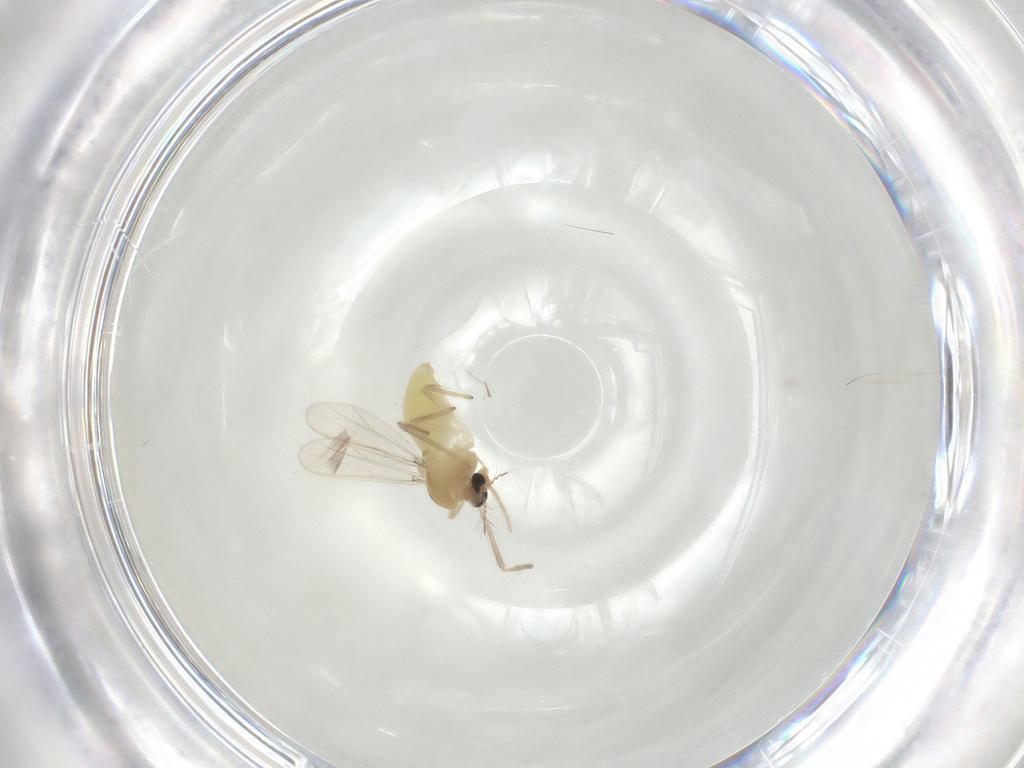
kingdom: Animalia
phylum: Arthropoda
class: Insecta
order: Diptera
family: Chironomidae
